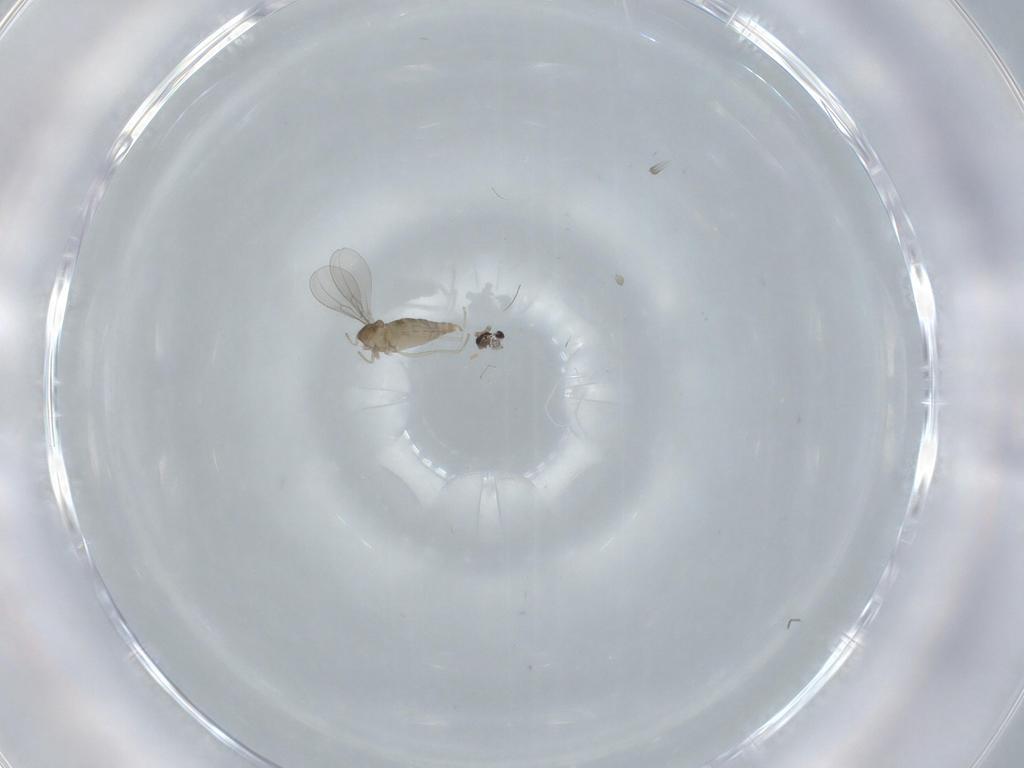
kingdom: Animalia
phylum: Arthropoda
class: Insecta
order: Diptera
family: Cecidomyiidae
